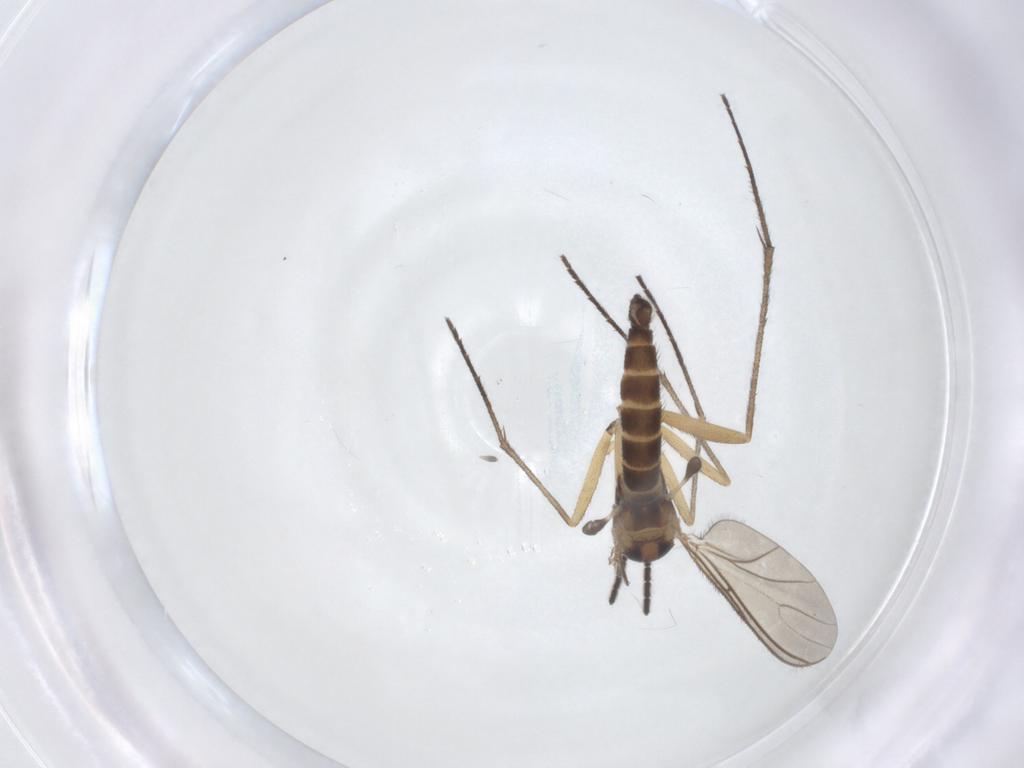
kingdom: Animalia
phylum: Arthropoda
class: Insecta
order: Diptera
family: Sciaridae
